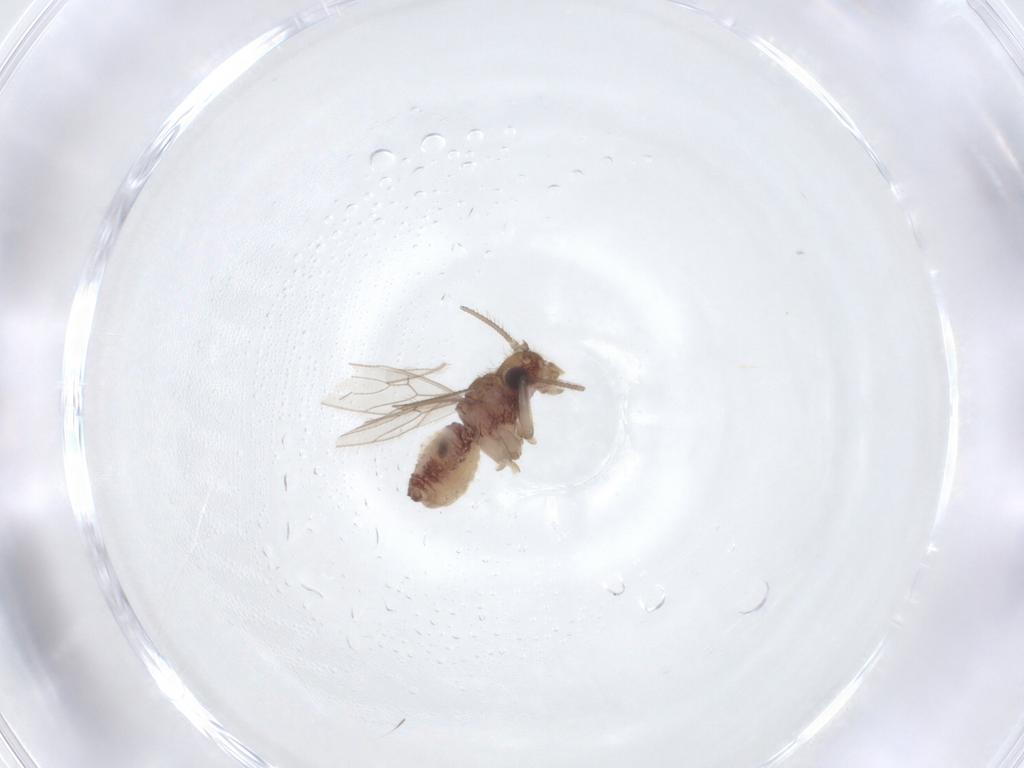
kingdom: Animalia
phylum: Arthropoda
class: Insecta
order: Psocodea
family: Cladiopsocidae
